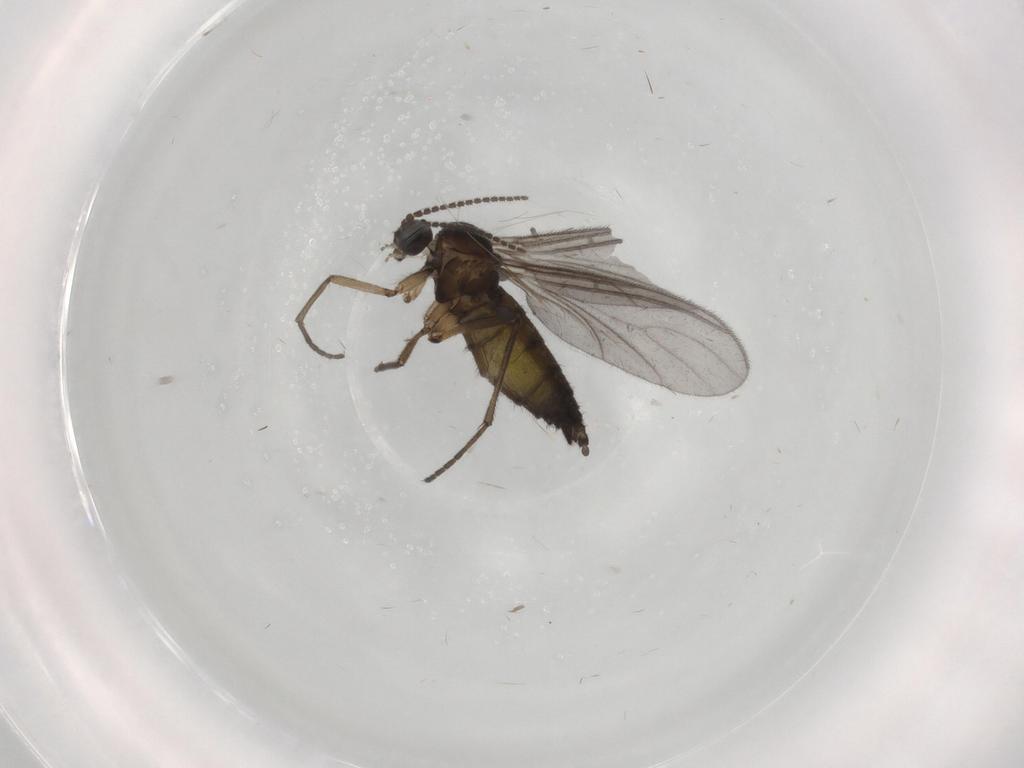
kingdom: Animalia
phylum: Arthropoda
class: Insecta
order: Diptera
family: Sciaridae
